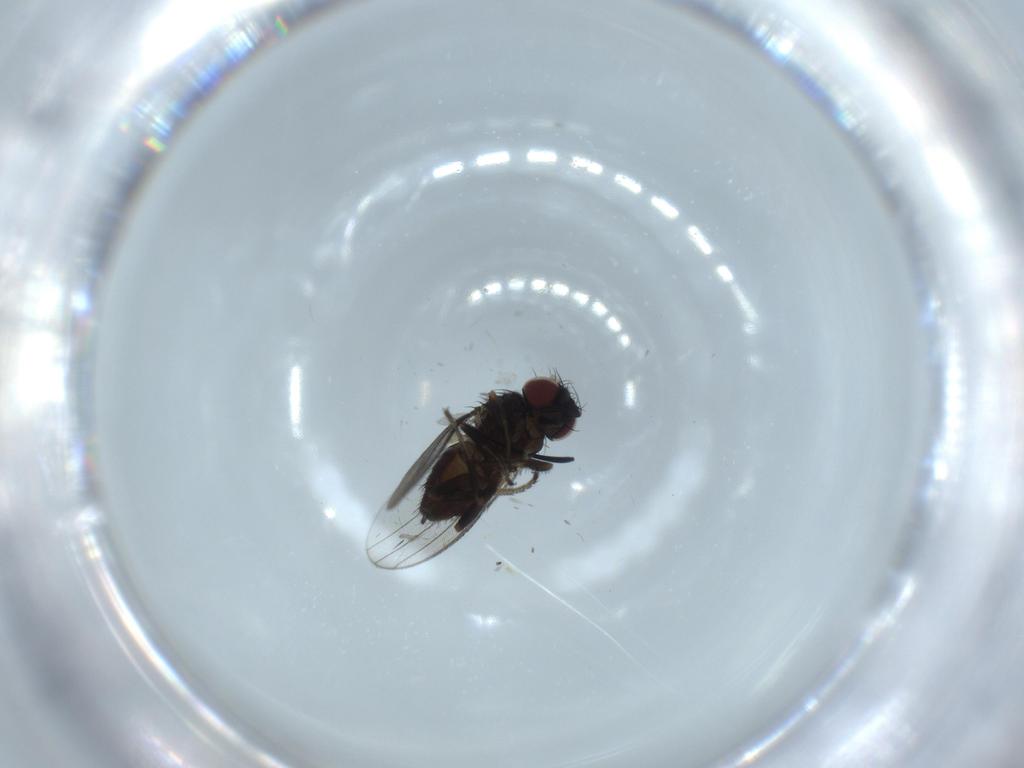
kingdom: Animalia
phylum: Arthropoda
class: Insecta
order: Diptera
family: Milichiidae
